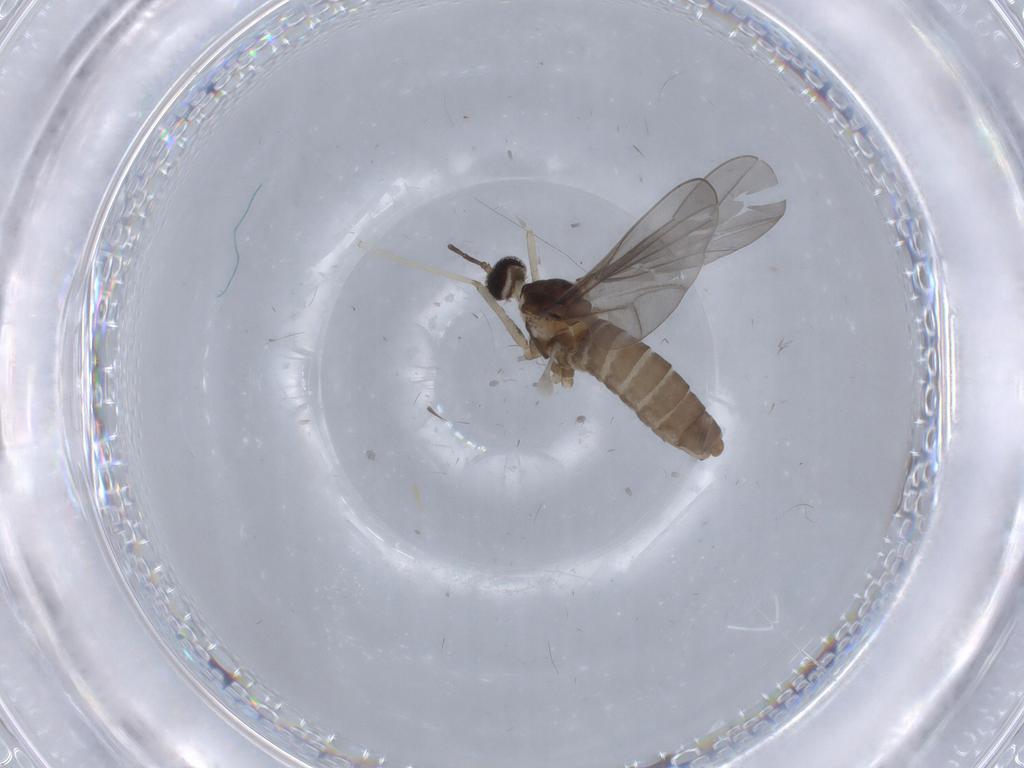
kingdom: Animalia
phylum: Arthropoda
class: Insecta
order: Diptera
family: Cecidomyiidae
